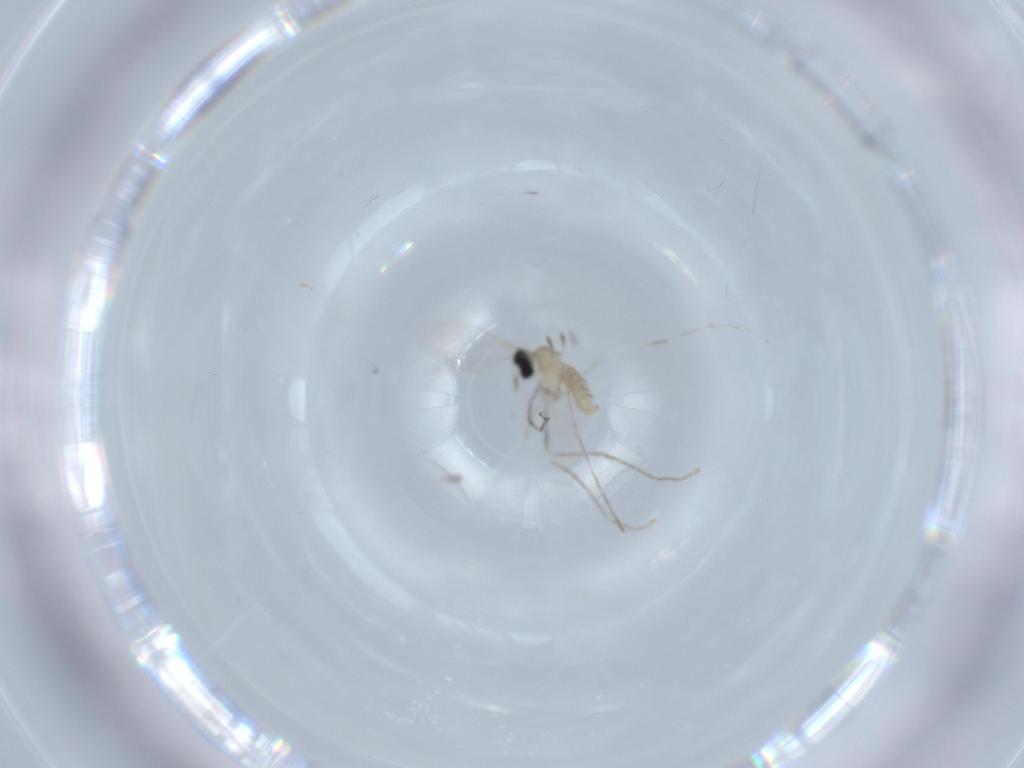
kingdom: Animalia
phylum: Arthropoda
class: Insecta
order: Diptera
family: Cecidomyiidae
